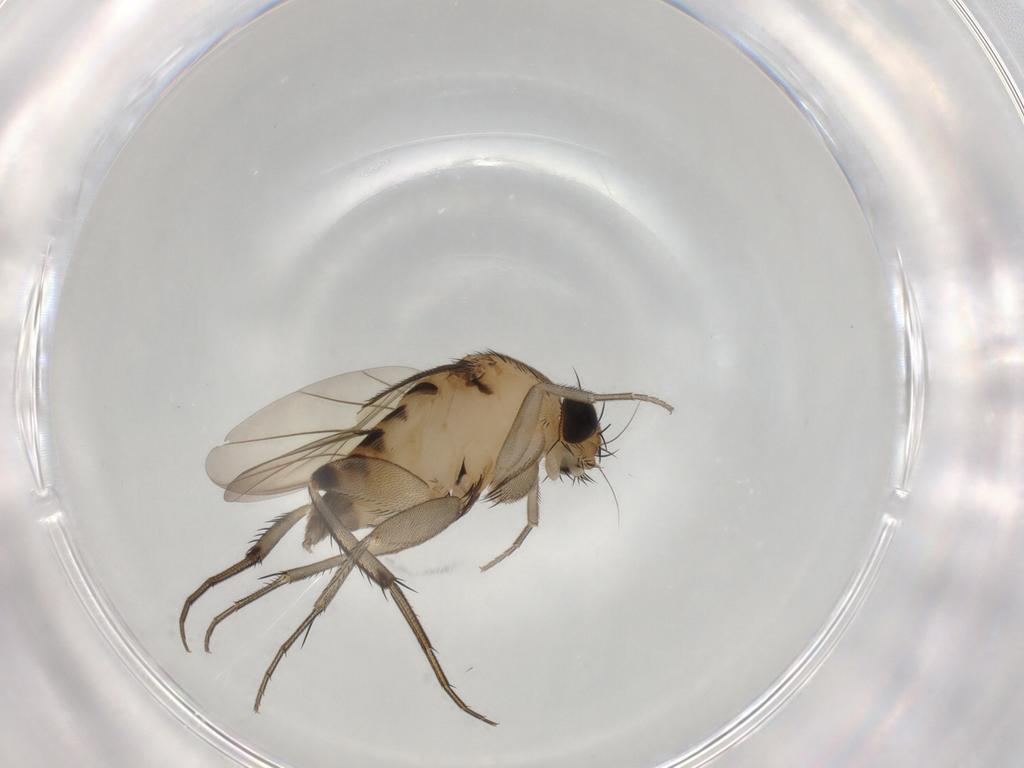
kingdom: Animalia
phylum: Arthropoda
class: Insecta
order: Diptera
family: Phoridae
